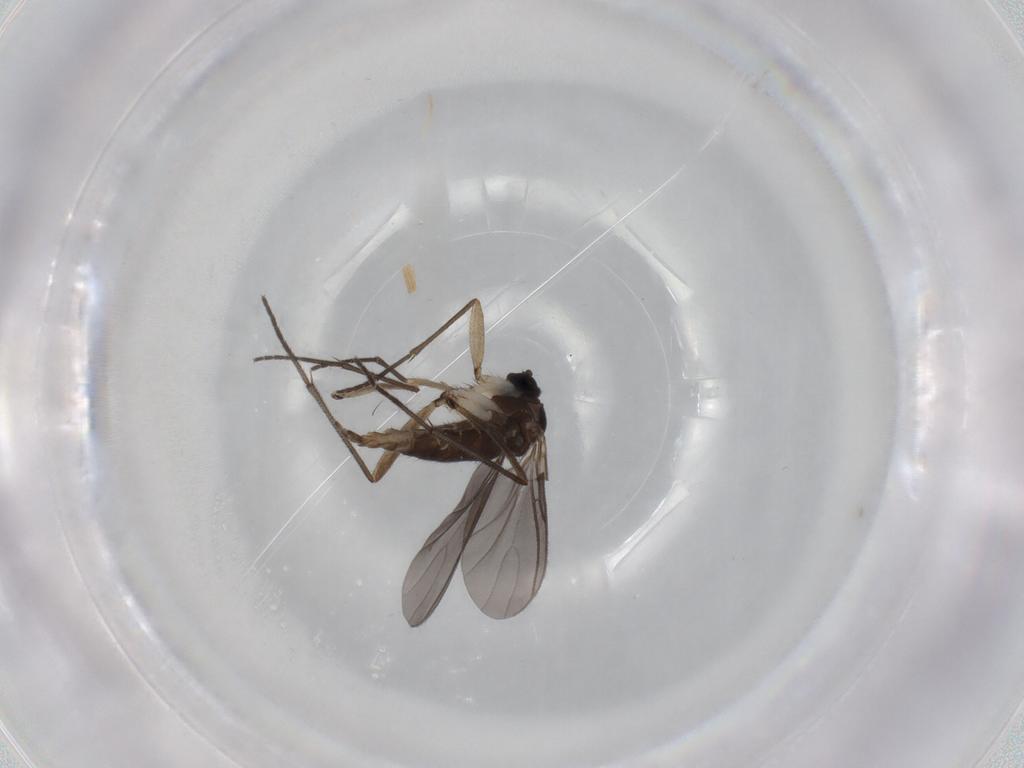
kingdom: Animalia
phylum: Arthropoda
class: Insecta
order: Diptera
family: Sciaridae
